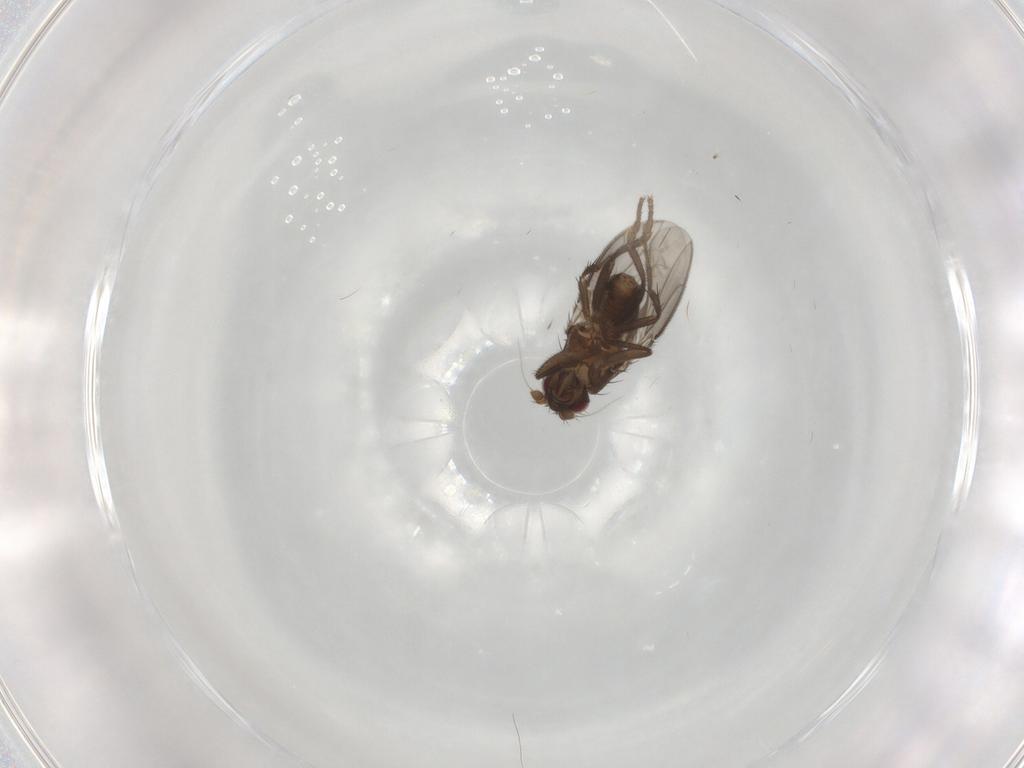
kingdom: Animalia
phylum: Arthropoda
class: Insecta
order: Diptera
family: Sphaeroceridae
